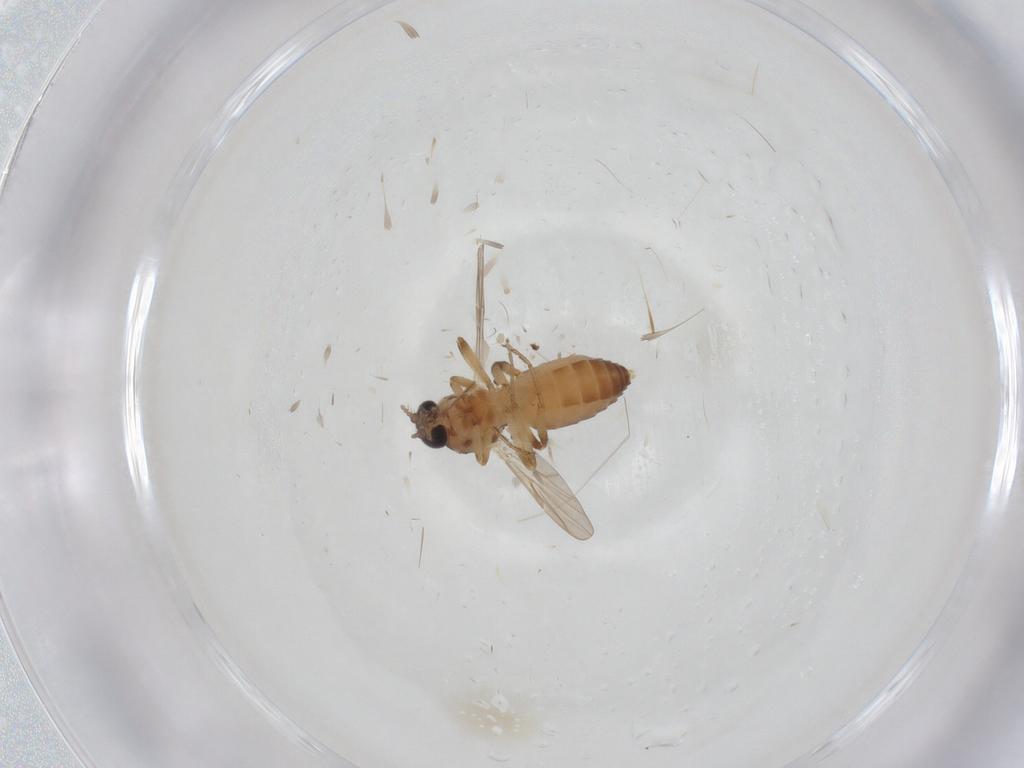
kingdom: Animalia
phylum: Arthropoda
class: Insecta
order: Diptera
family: Ceratopogonidae
